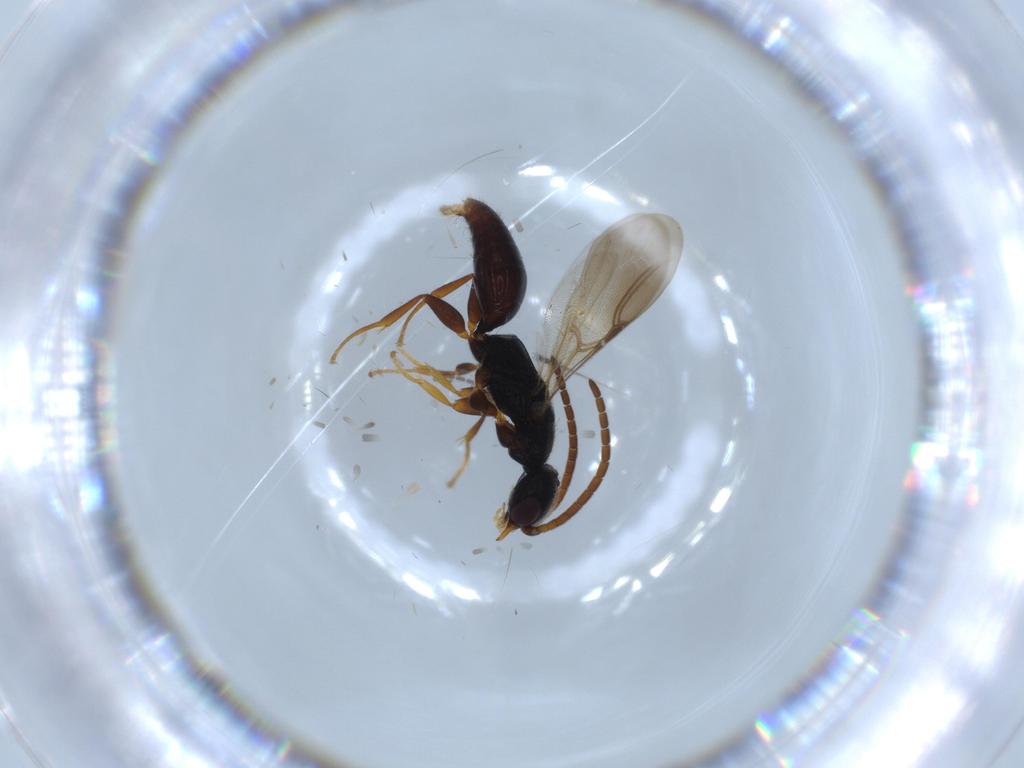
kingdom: Animalia
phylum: Arthropoda
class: Insecta
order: Hymenoptera
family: Bethylidae
